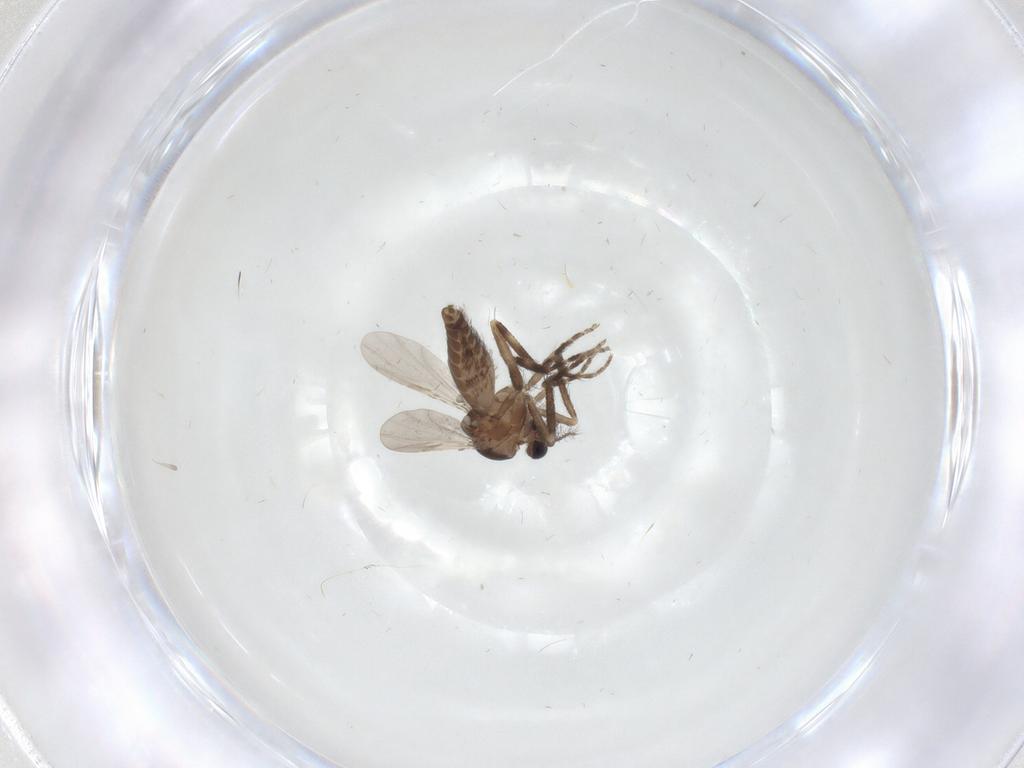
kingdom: Animalia
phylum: Arthropoda
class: Insecta
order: Diptera
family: Ceratopogonidae
